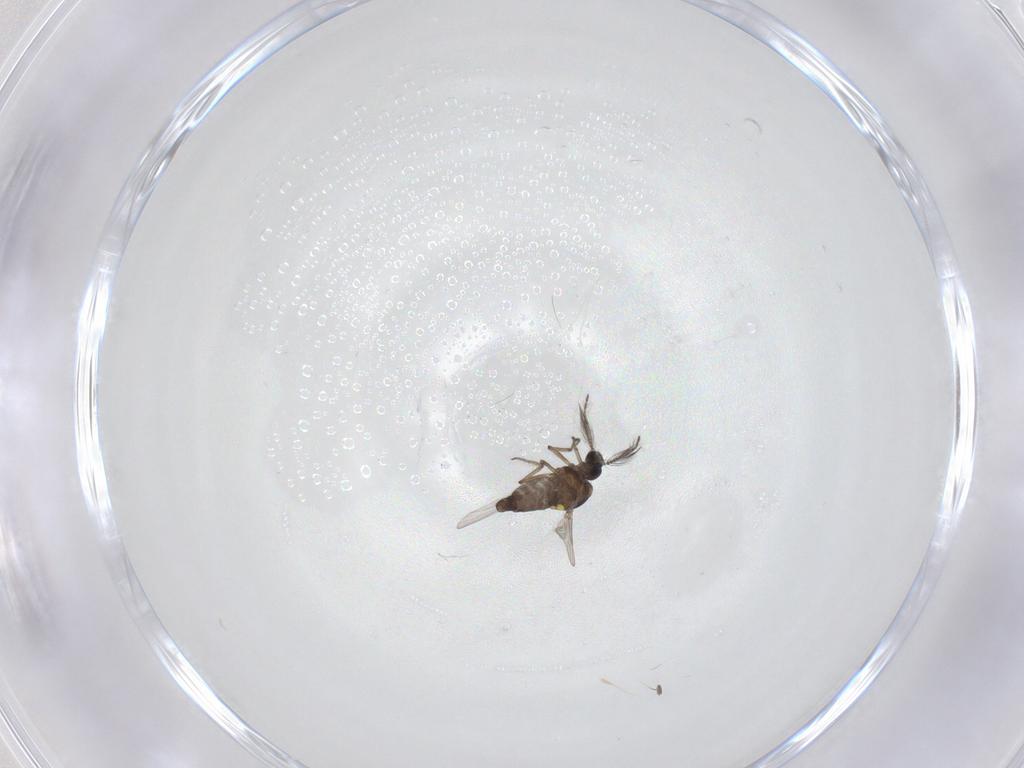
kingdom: Animalia
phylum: Arthropoda
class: Insecta
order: Diptera
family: Ceratopogonidae
